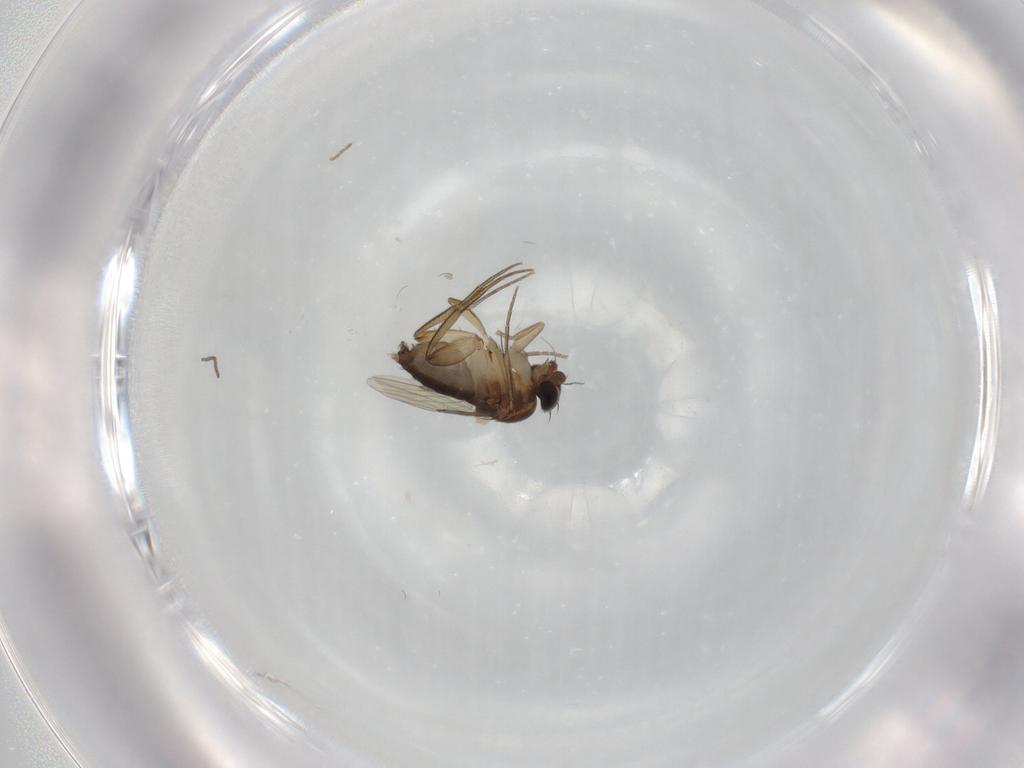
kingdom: Animalia
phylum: Arthropoda
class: Insecta
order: Diptera
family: Phoridae
